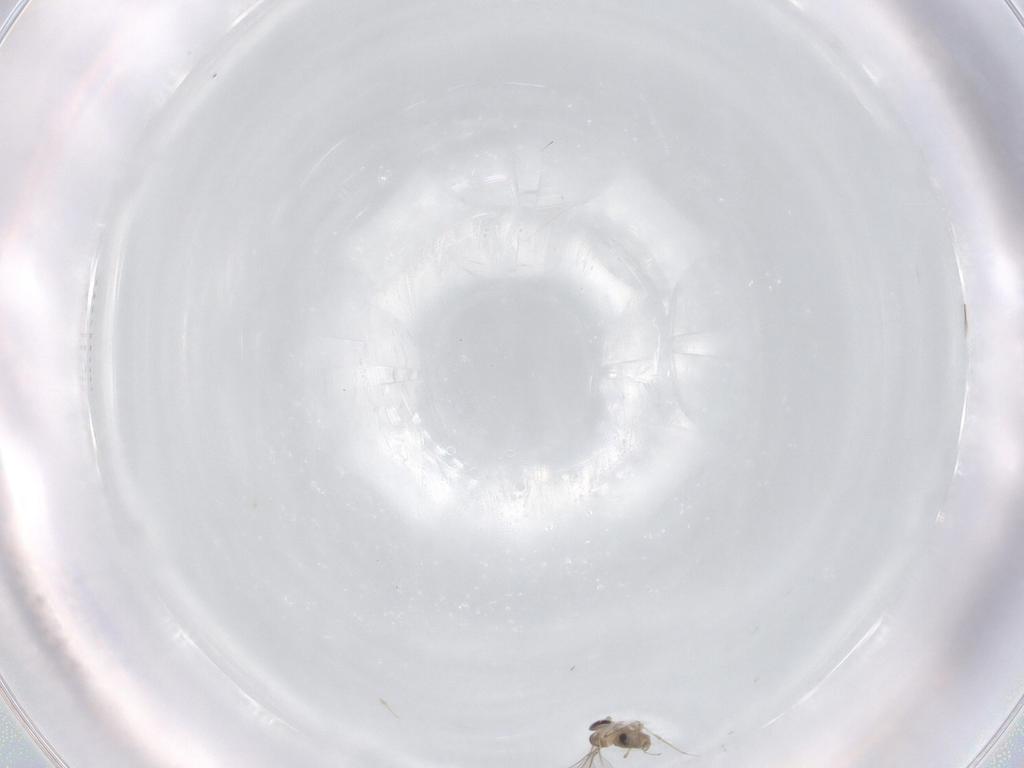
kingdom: Animalia
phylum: Arthropoda
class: Insecta
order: Diptera
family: Cecidomyiidae
